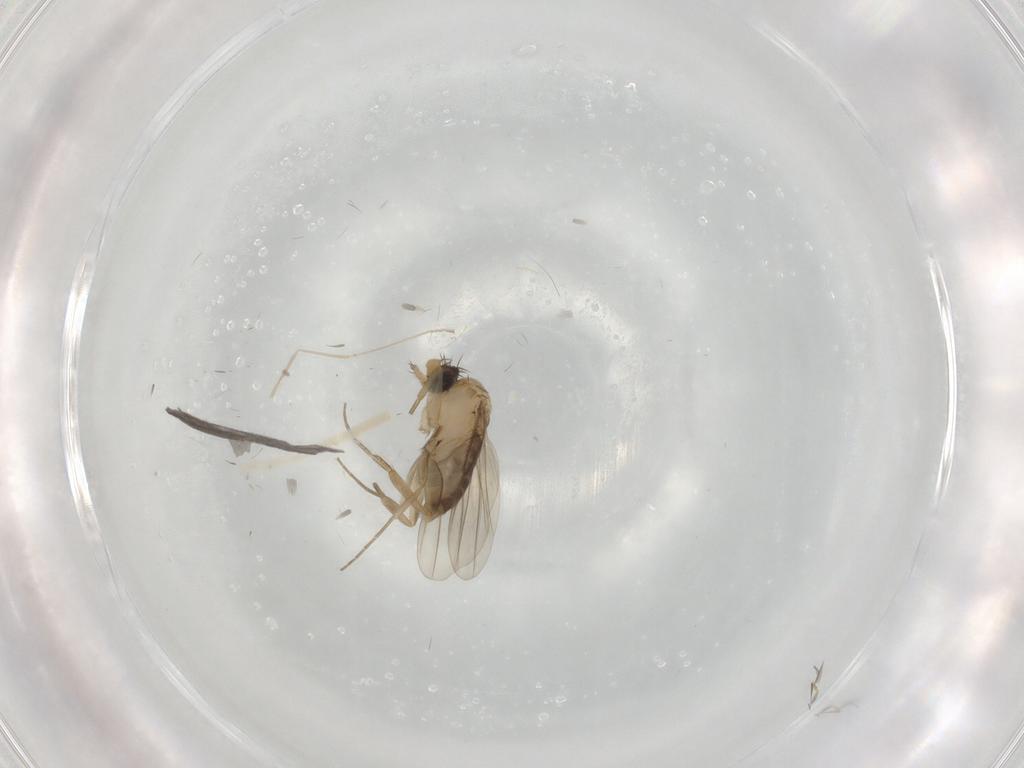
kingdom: Animalia
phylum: Arthropoda
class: Insecta
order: Diptera
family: Phoridae
